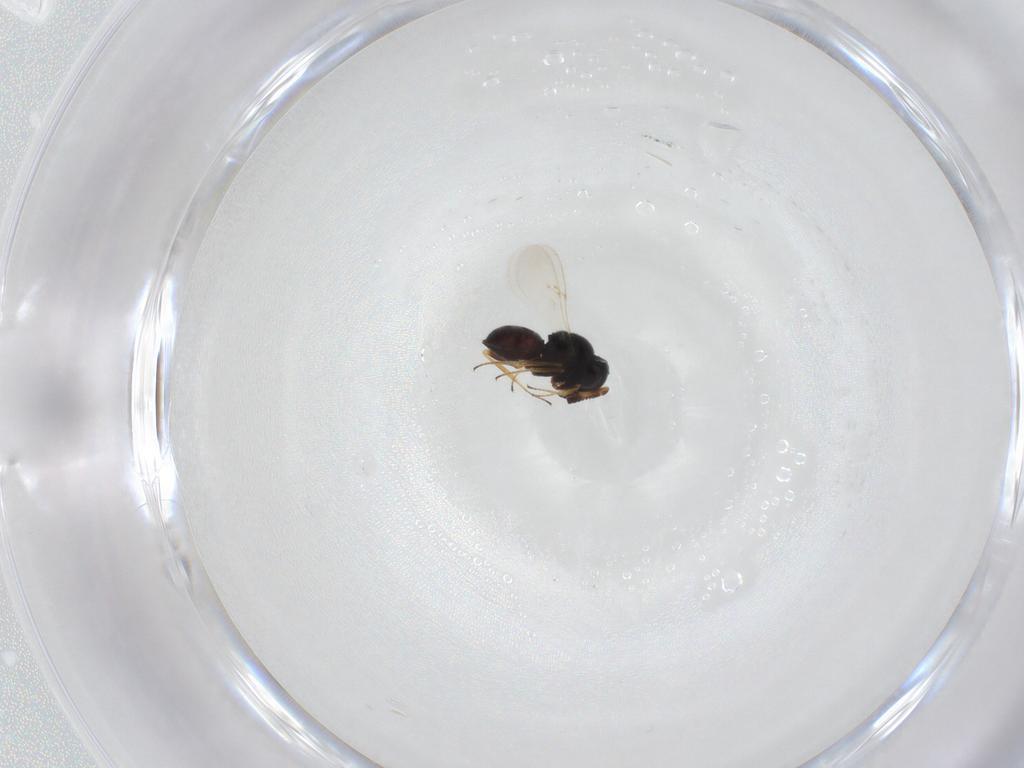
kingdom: Animalia
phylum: Arthropoda
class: Insecta
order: Hymenoptera
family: Scelionidae
